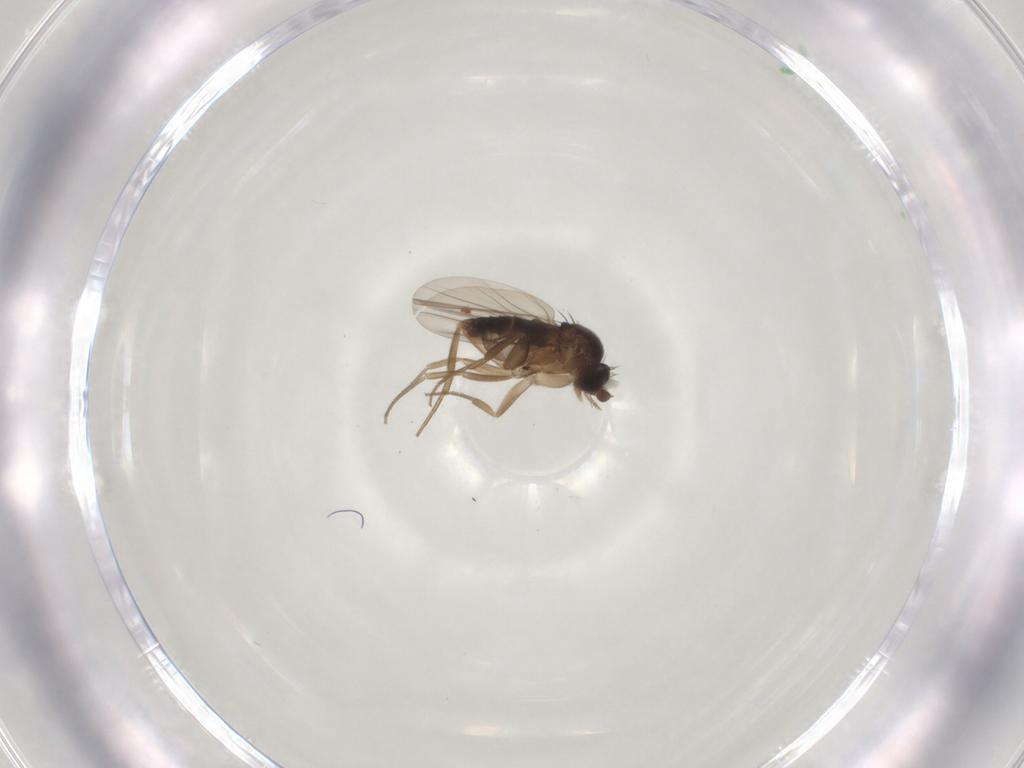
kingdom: Animalia
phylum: Arthropoda
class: Insecta
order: Diptera
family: Phoridae
